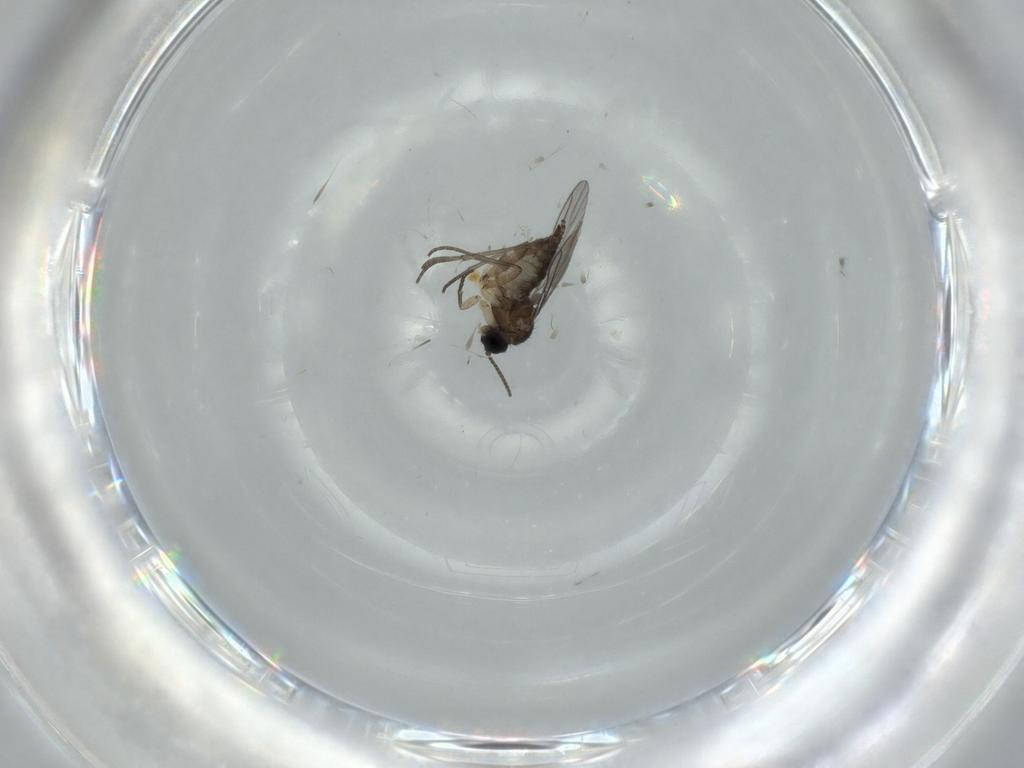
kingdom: Animalia
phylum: Arthropoda
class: Insecta
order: Diptera
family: Sciaridae
